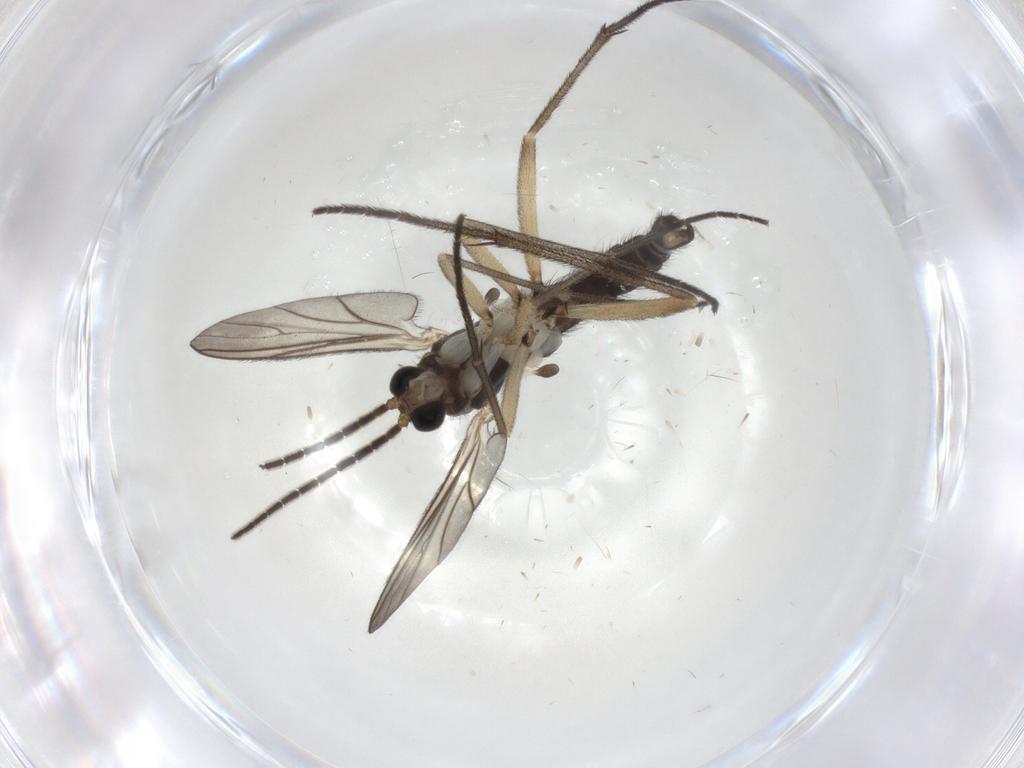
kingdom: Animalia
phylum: Arthropoda
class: Insecta
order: Diptera
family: Sciaridae
